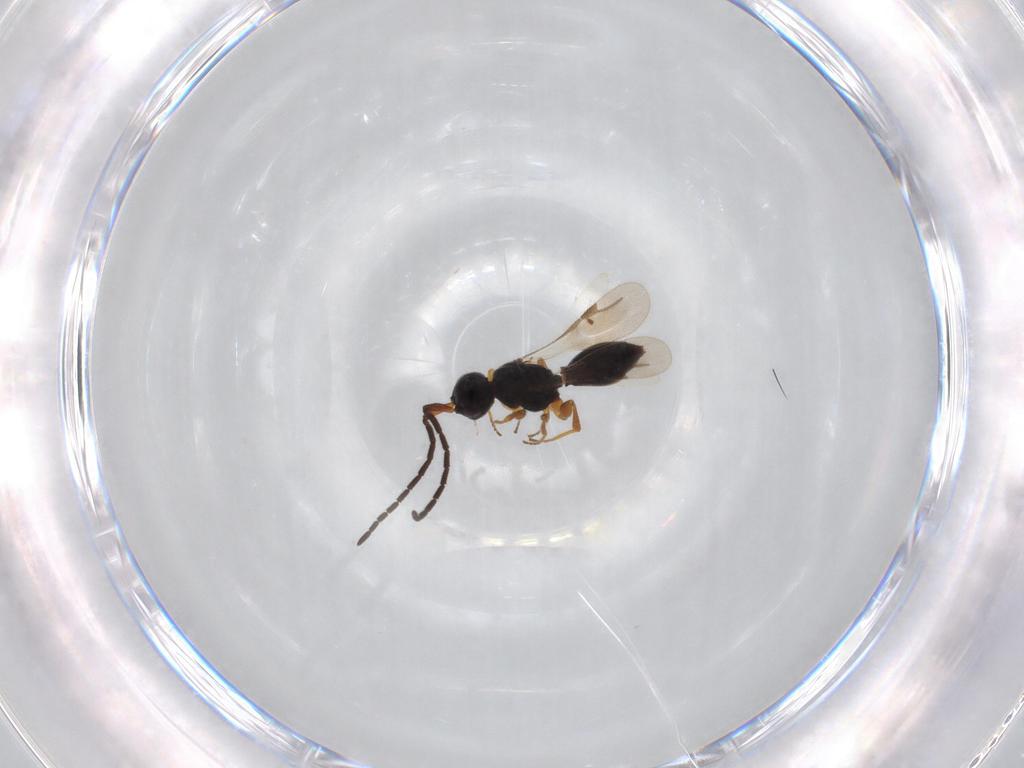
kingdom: Animalia
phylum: Arthropoda
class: Insecta
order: Hymenoptera
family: Megaspilidae
